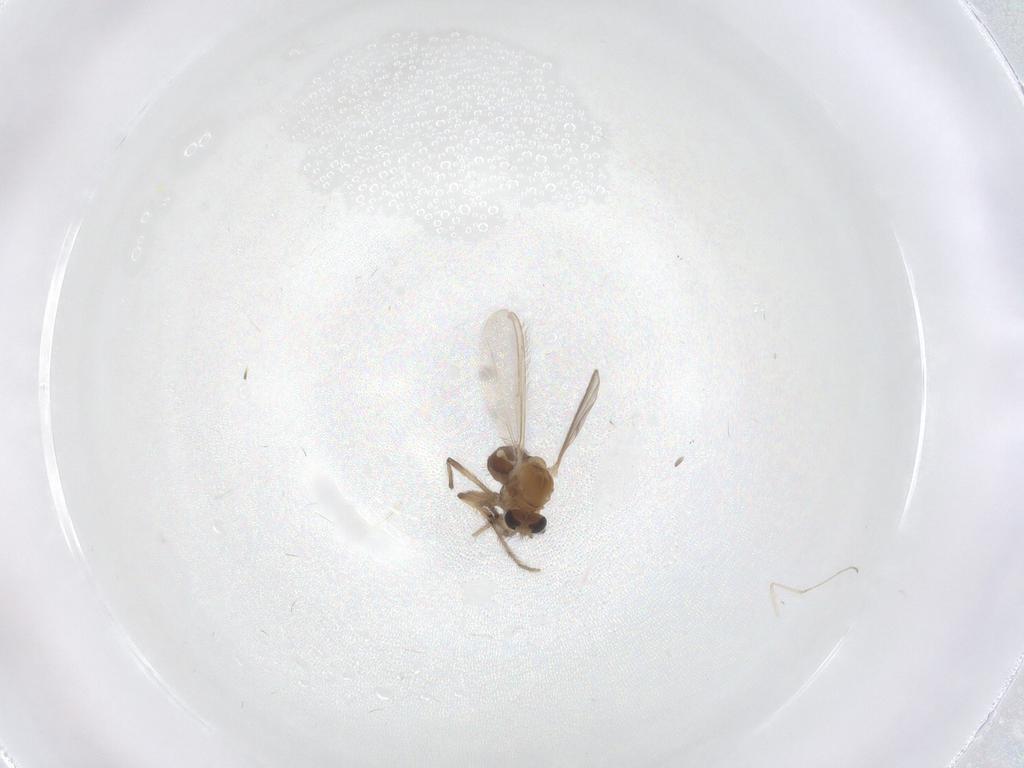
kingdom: Animalia
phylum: Arthropoda
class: Insecta
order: Diptera
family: Cecidomyiidae
